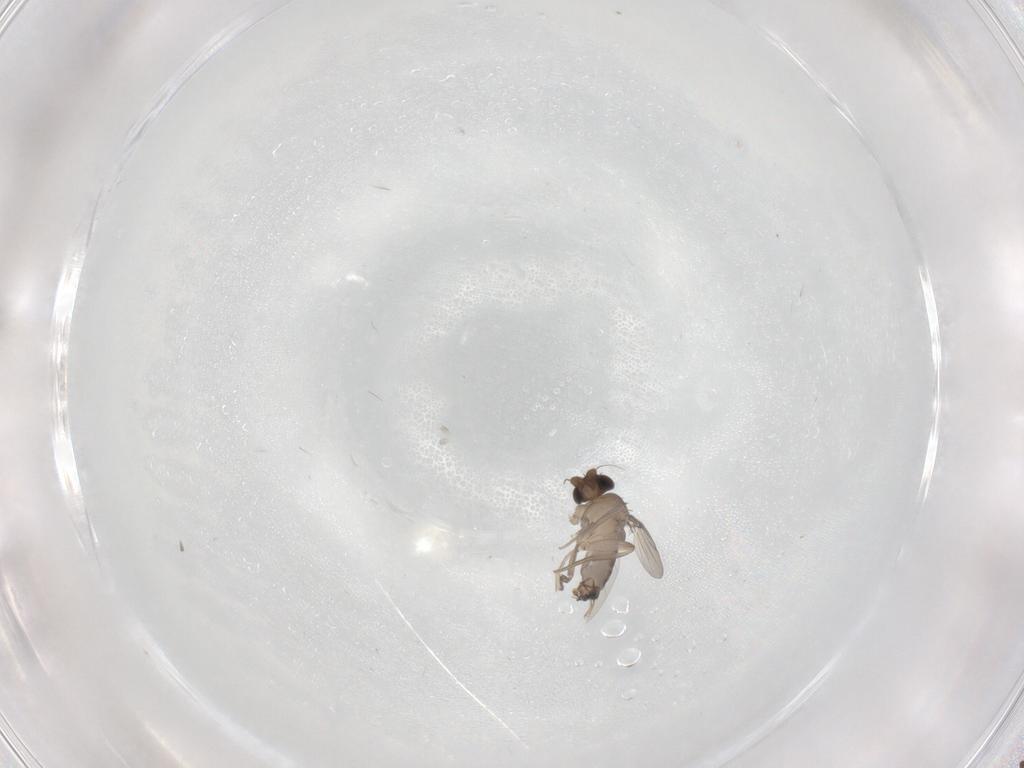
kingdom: Animalia
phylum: Arthropoda
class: Insecta
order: Diptera
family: Phoridae
